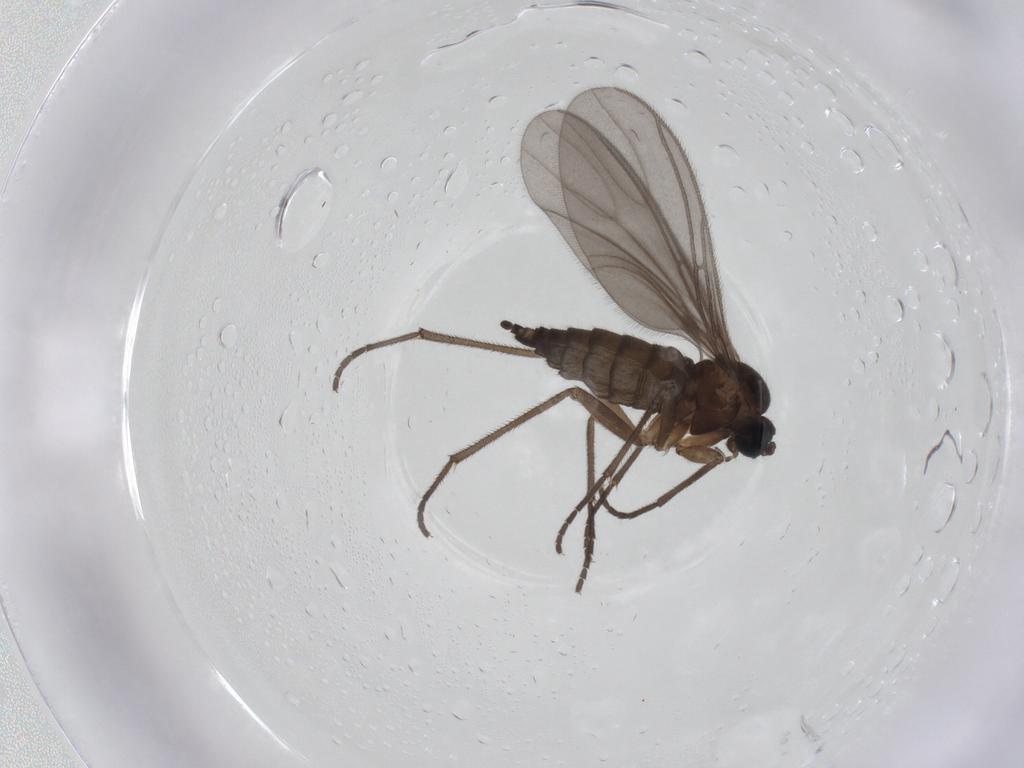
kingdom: Animalia
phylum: Arthropoda
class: Insecta
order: Diptera
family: Sciaridae
